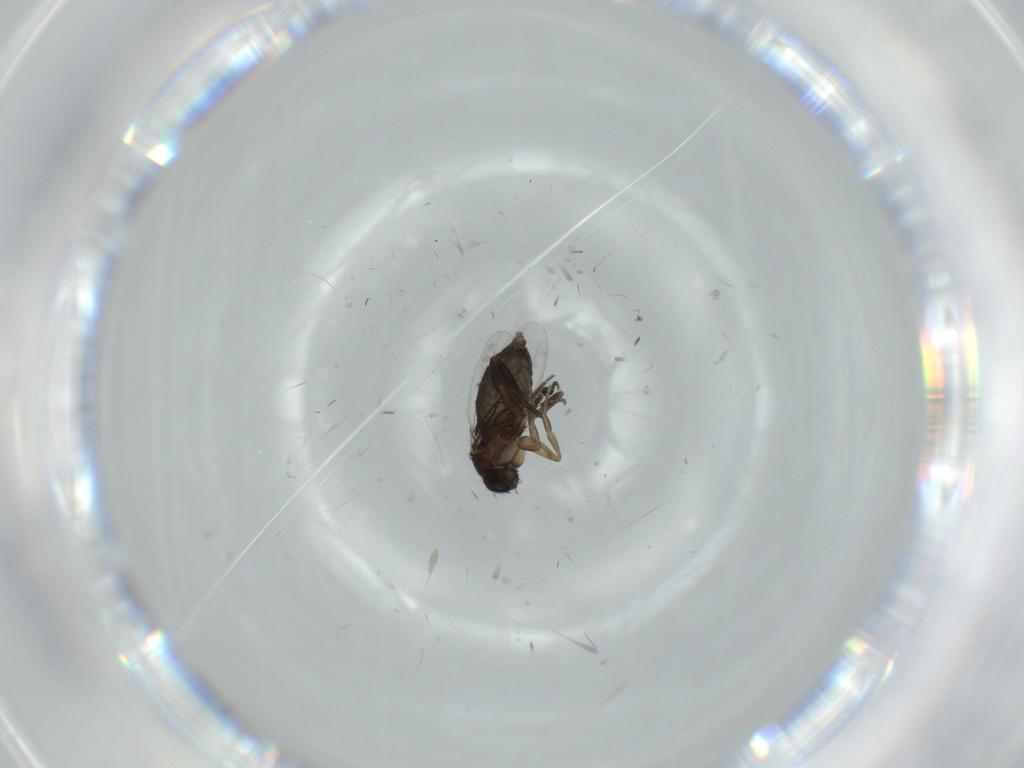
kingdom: Animalia
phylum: Arthropoda
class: Insecta
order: Diptera
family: Phoridae
